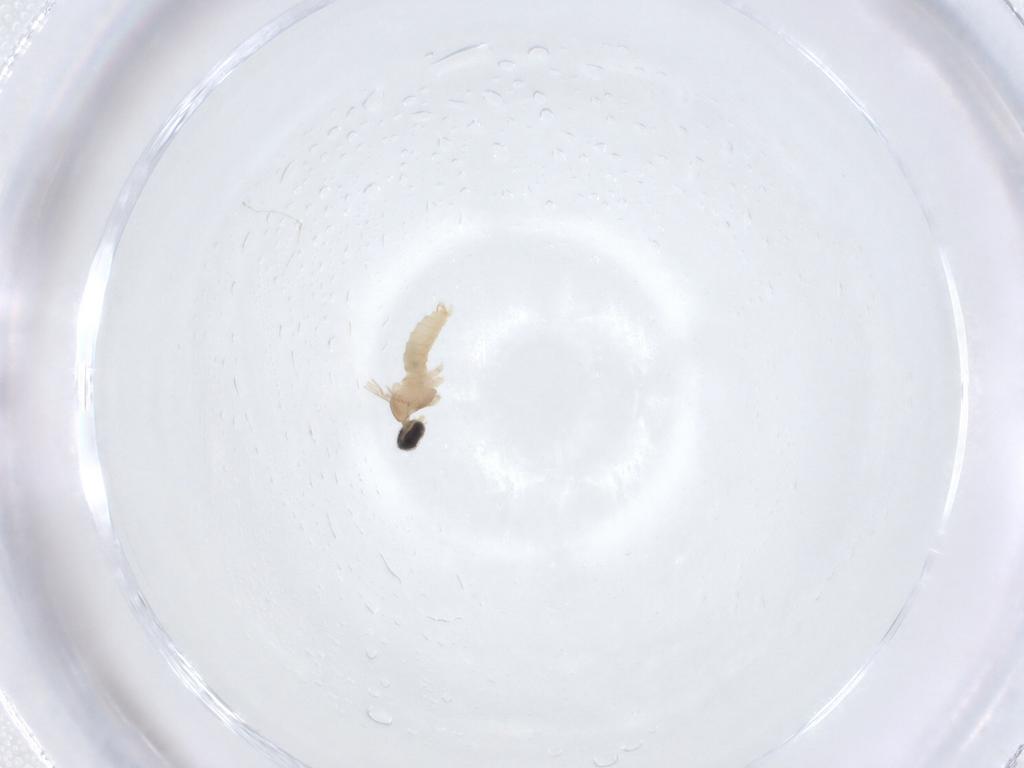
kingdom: Animalia
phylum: Arthropoda
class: Insecta
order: Diptera
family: Cecidomyiidae
